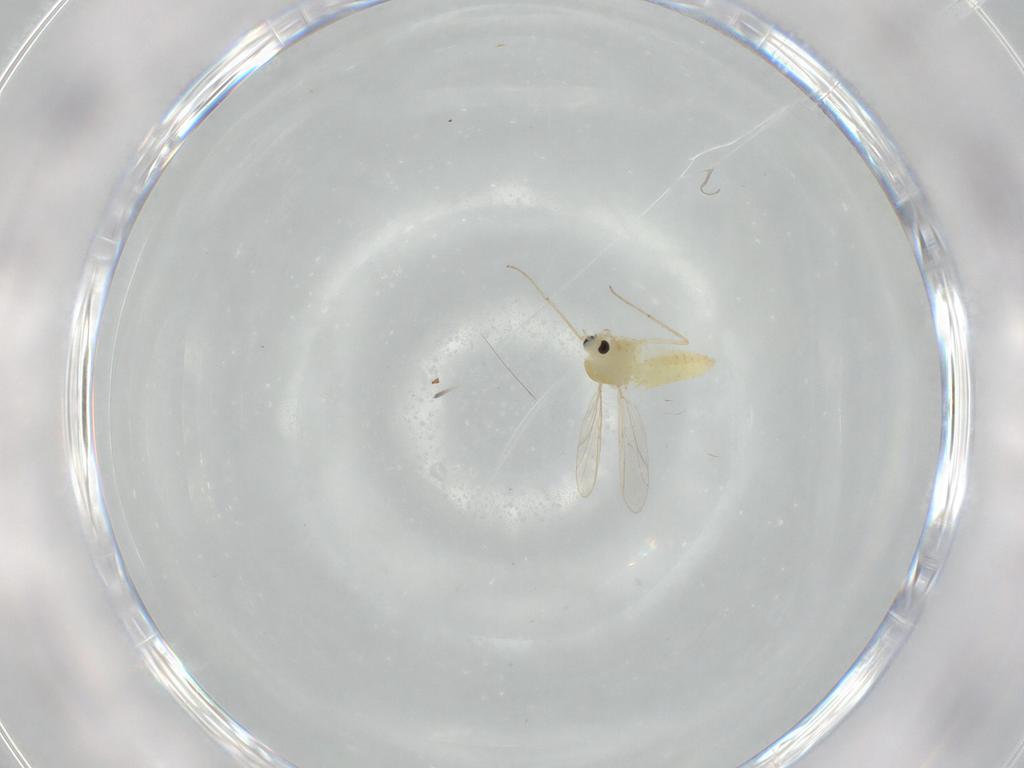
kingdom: Animalia
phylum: Arthropoda
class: Insecta
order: Diptera
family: Chironomidae
